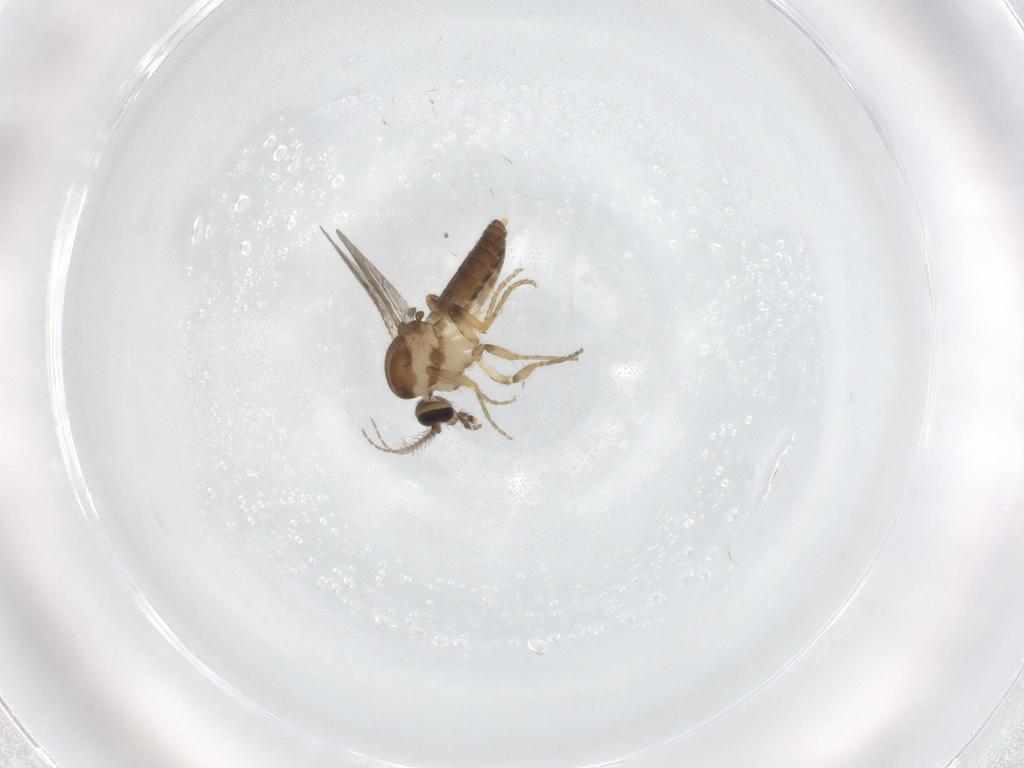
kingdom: Animalia
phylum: Arthropoda
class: Insecta
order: Diptera
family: Ceratopogonidae
